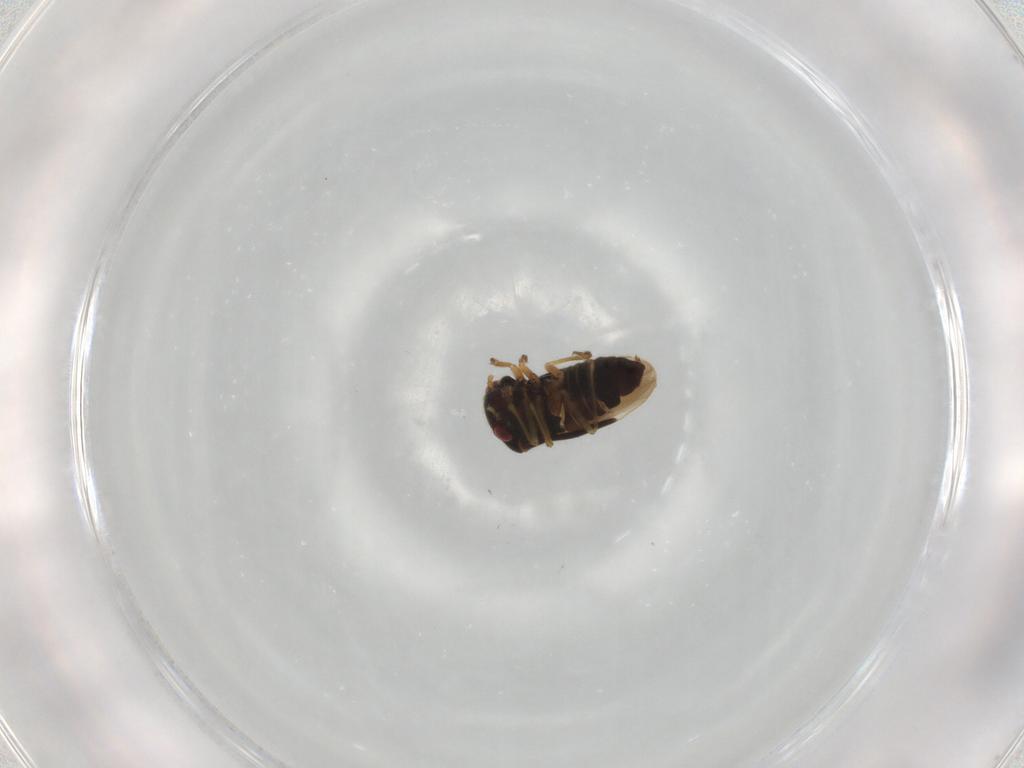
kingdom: Animalia
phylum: Arthropoda
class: Insecta
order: Hemiptera
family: Schizopteridae
